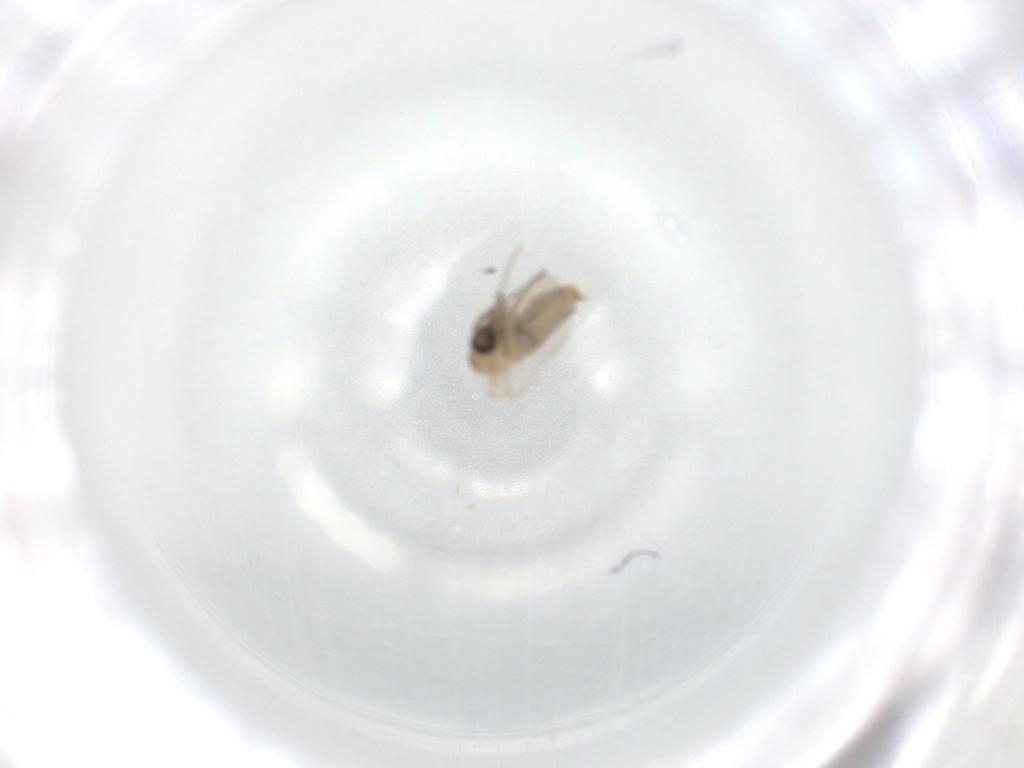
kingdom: Animalia
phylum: Arthropoda
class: Insecta
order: Diptera
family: Psychodidae
